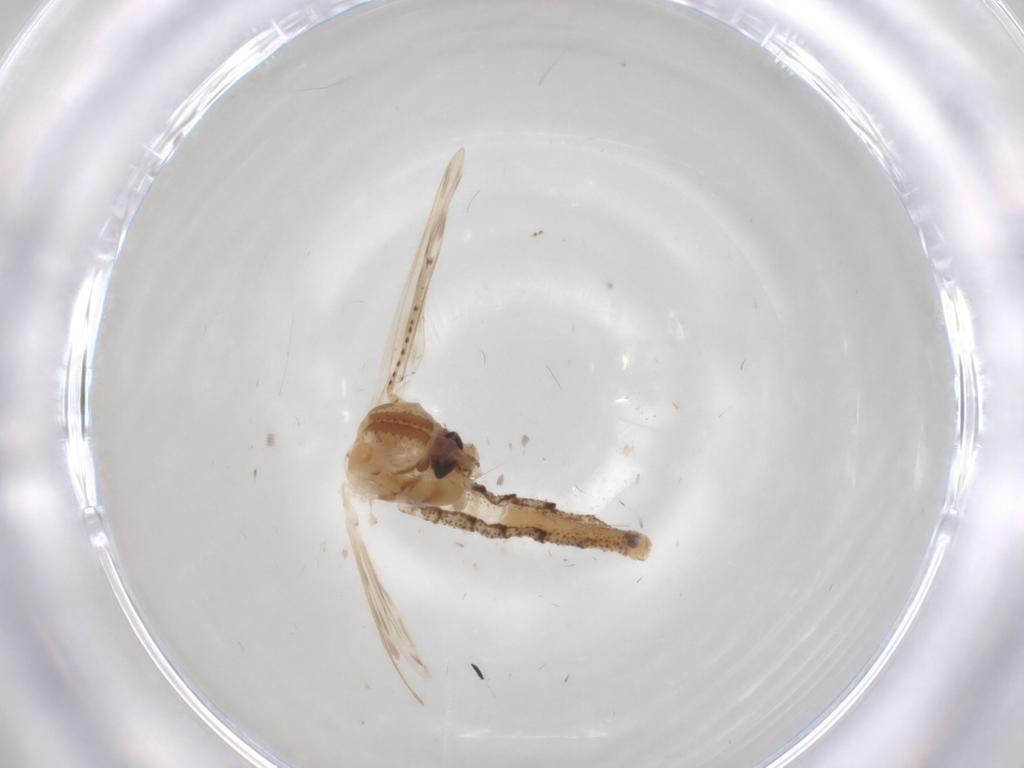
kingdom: Animalia
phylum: Arthropoda
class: Insecta
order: Diptera
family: Chaoboridae
